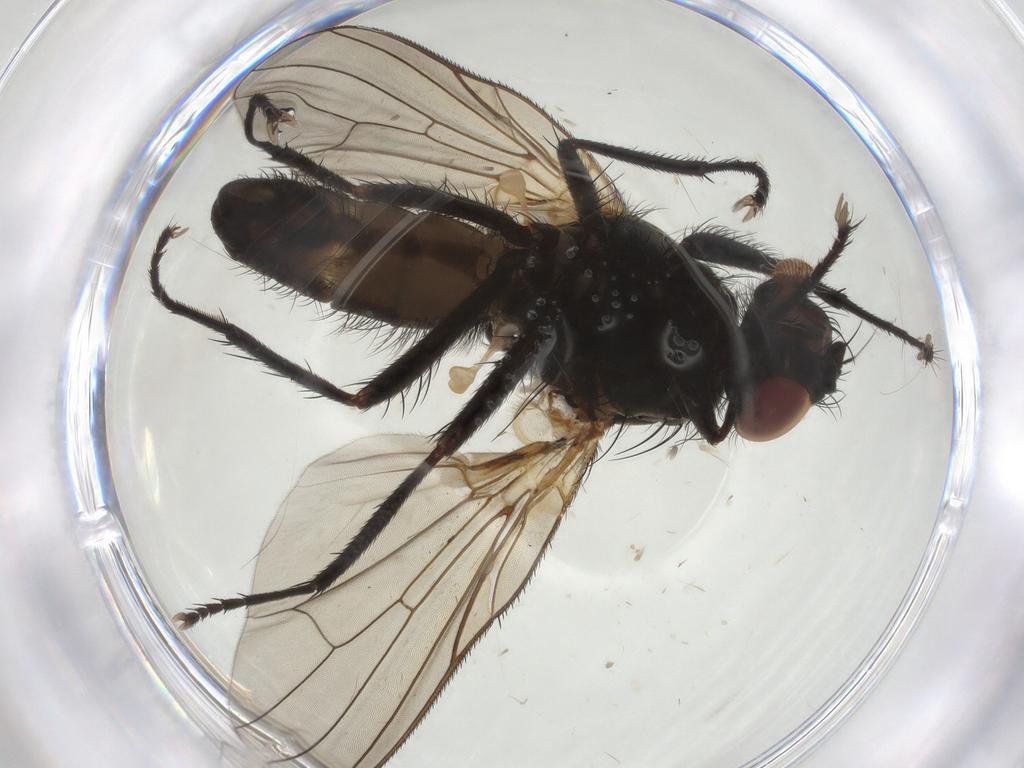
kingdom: Animalia
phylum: Arthropoda
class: Insecta
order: Diptera
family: Anthomyiidae
